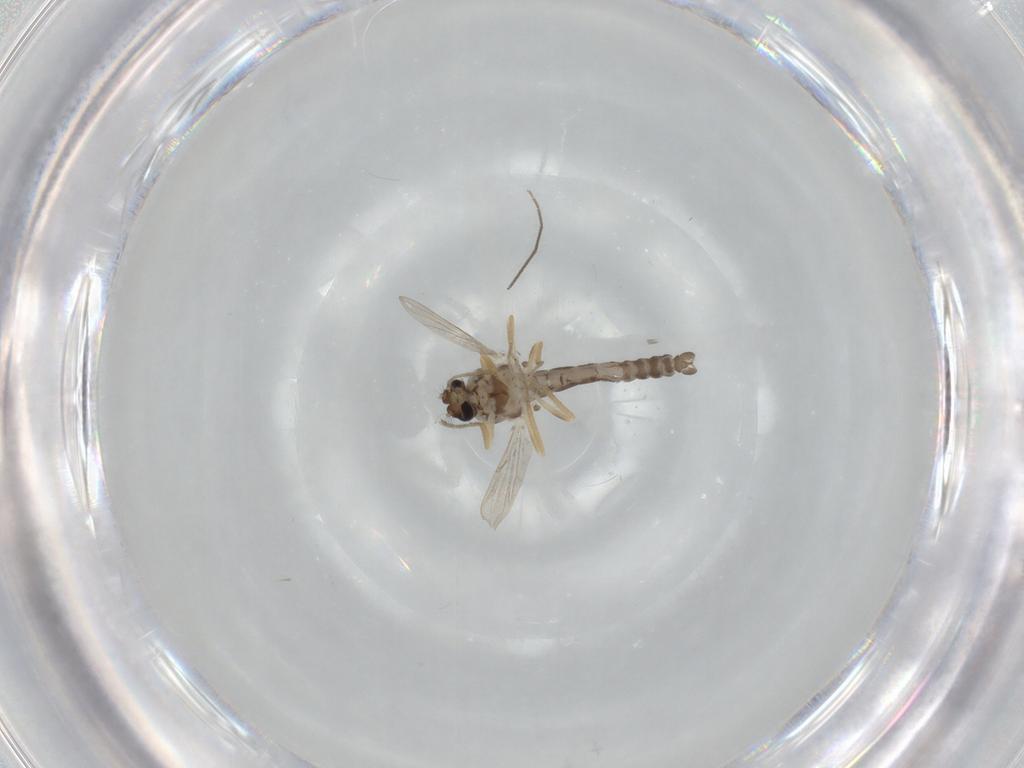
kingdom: Animalia
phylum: Arthropoda
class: Insecta
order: Diptera
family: Ceratopogonidae
